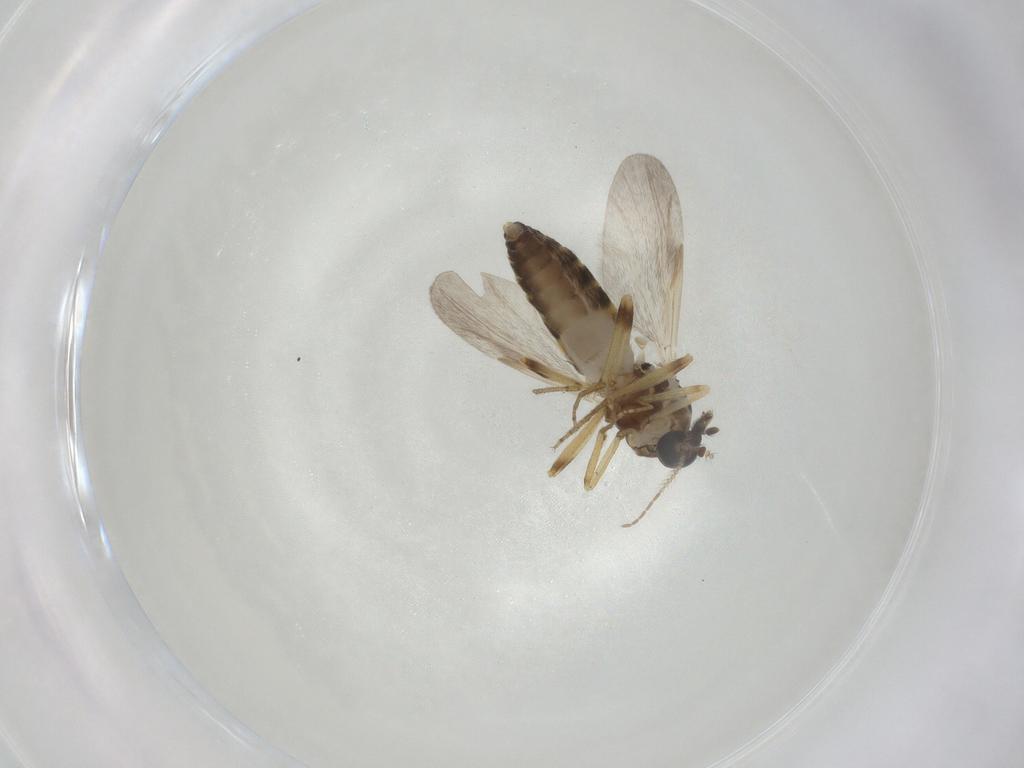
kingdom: Animalia
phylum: Arthropoda
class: Insecta
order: Diptera
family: Ceratopogonidae
